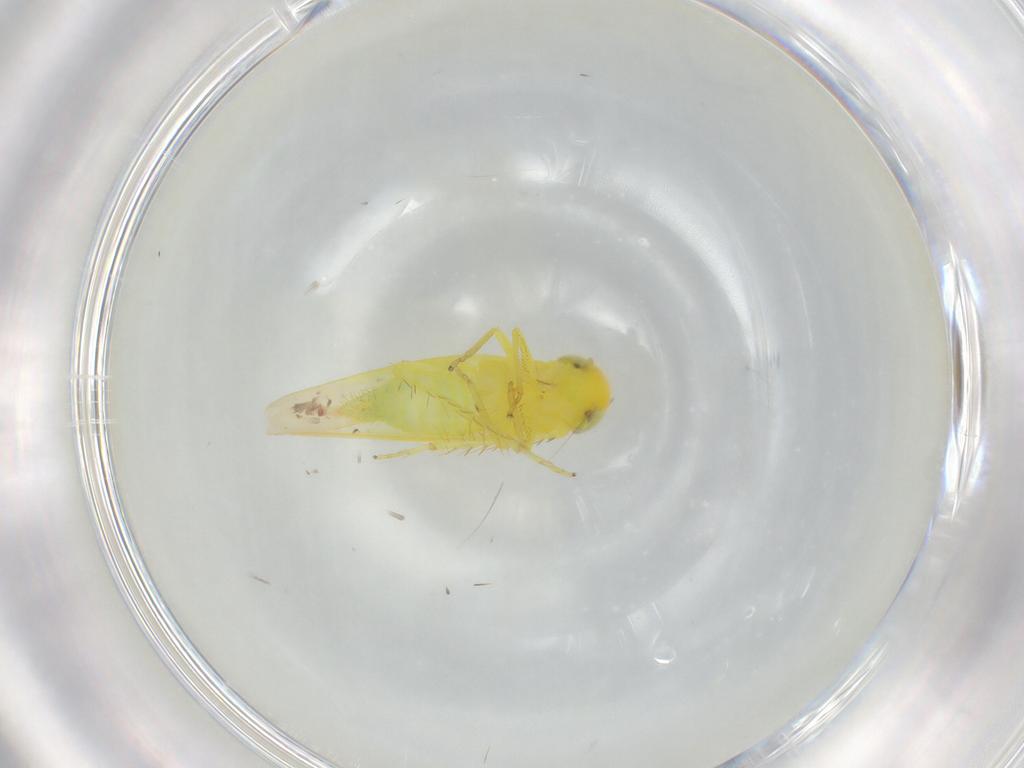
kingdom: Animalia
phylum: Arthropoda
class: Insecta
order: Hemiptera
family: Cicadellidae
